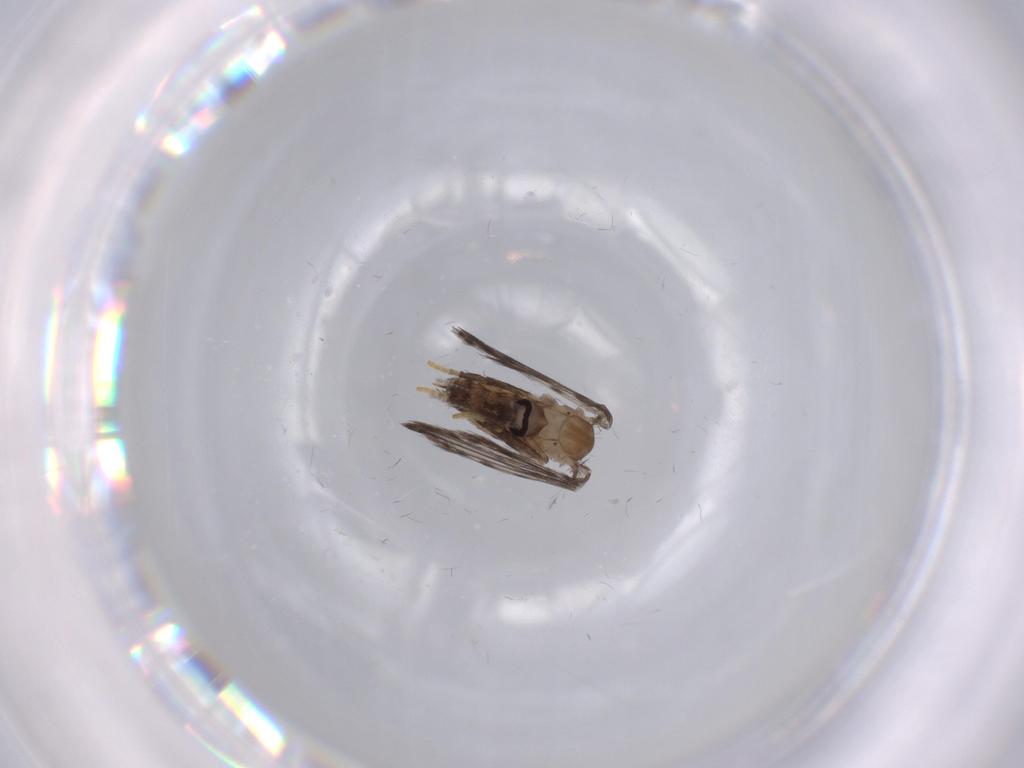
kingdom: Animalia
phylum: Arthropoda
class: Insecta
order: Diptera
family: Psychodidae
